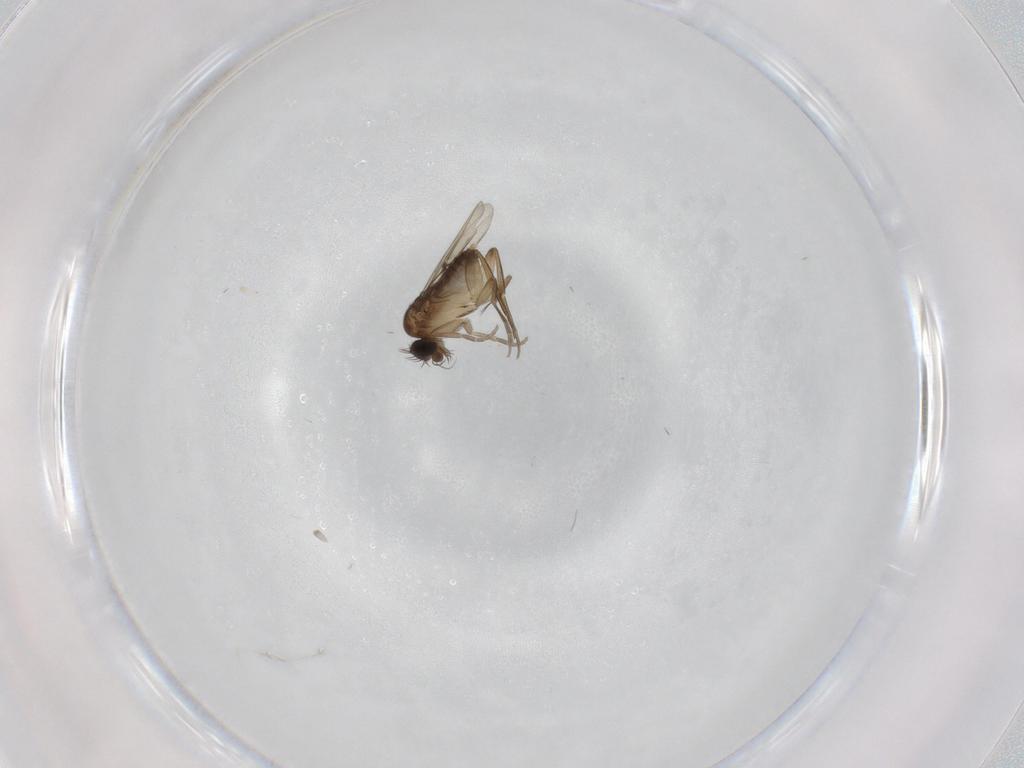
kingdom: Animalia
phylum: Arthropoda
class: Insecta
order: Diptera
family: Phoridae
